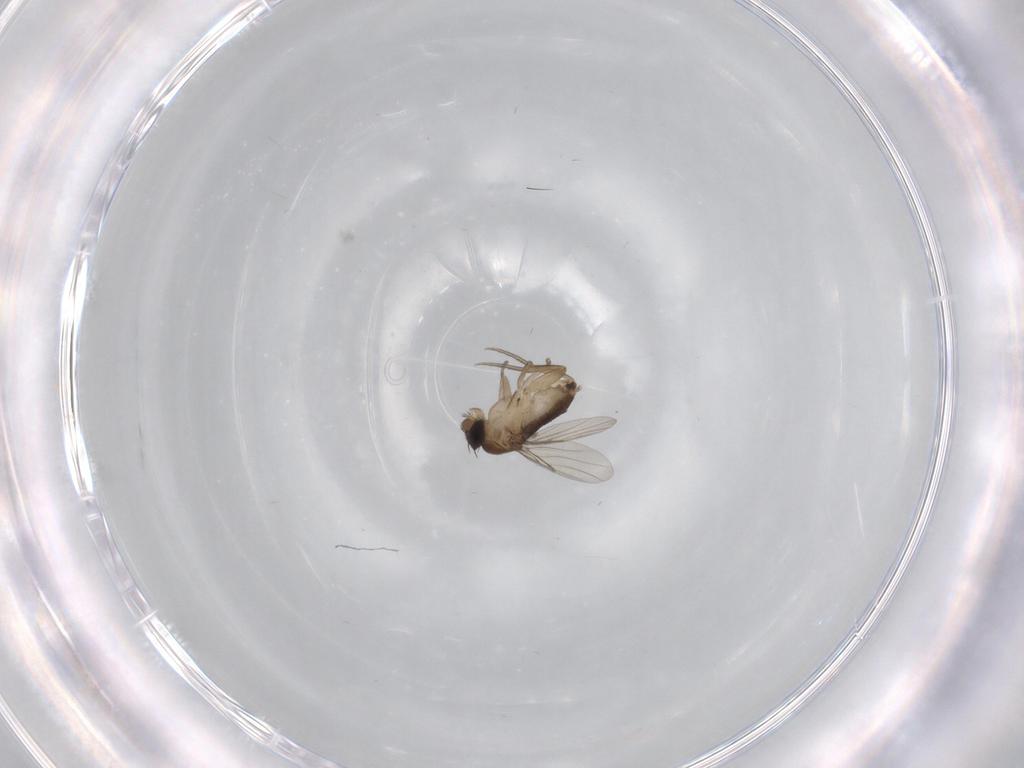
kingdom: Animalia
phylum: Arthropoda
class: Insecta
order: Diptera
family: Phoridae
